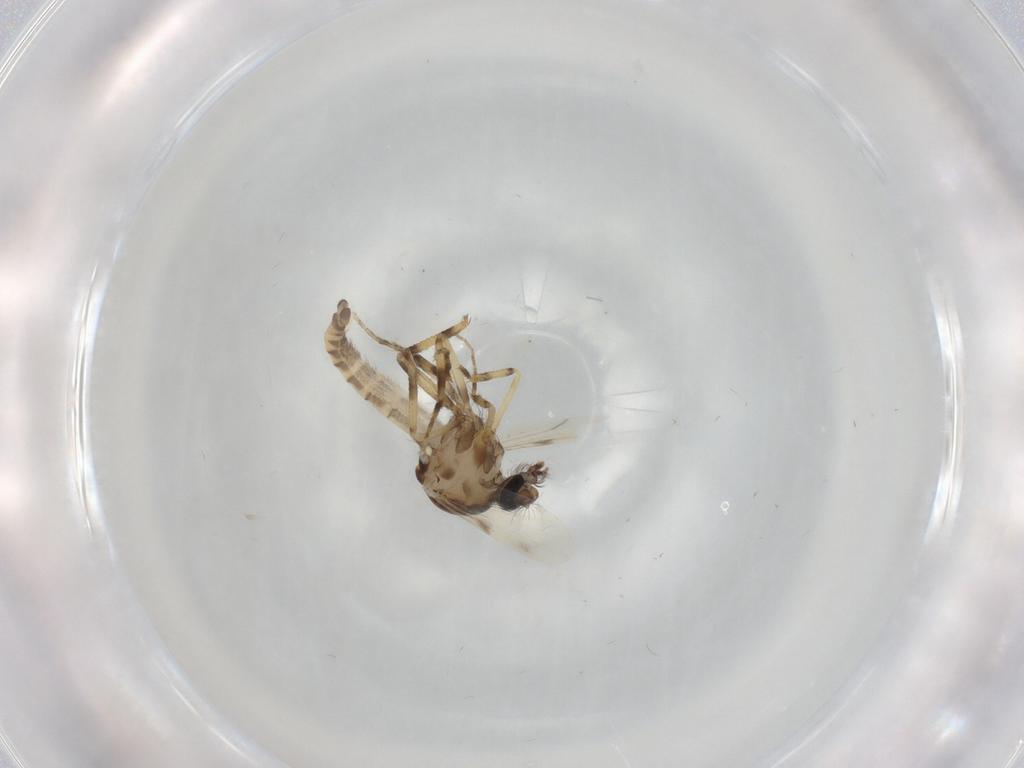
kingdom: Animalia
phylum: Arthropoda
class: Insecta
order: Diptera
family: Ceratopogonidae
